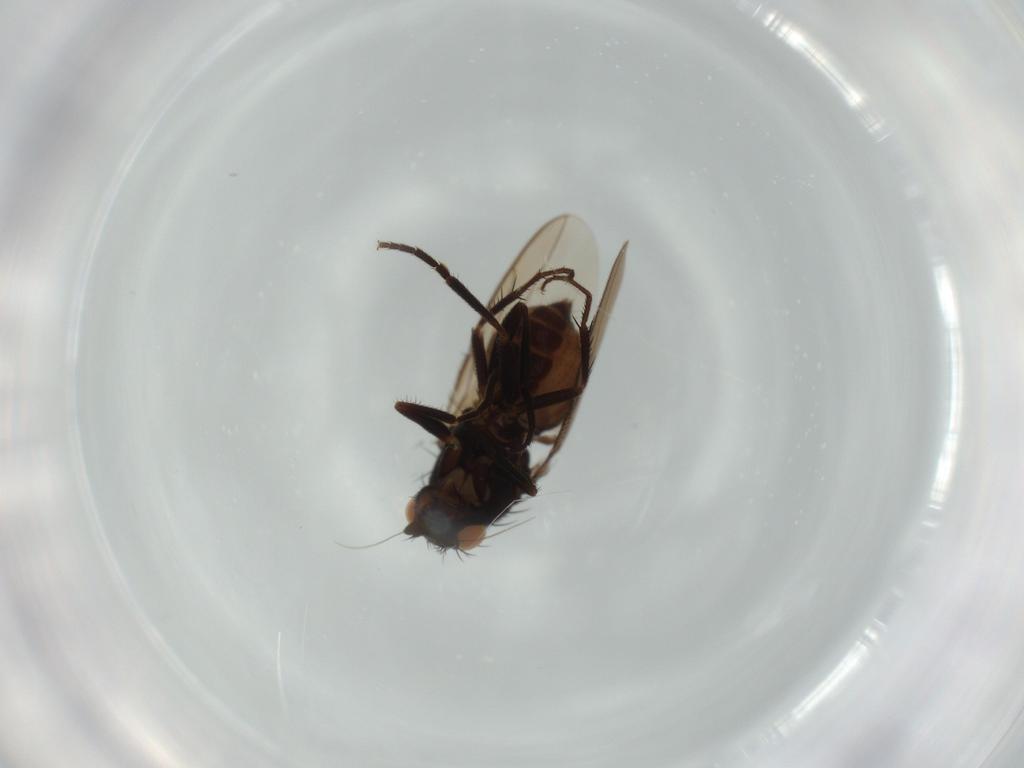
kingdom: Animalia
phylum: Arthropoda
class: Insecta
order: Diptera
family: Sphaeroceridae
